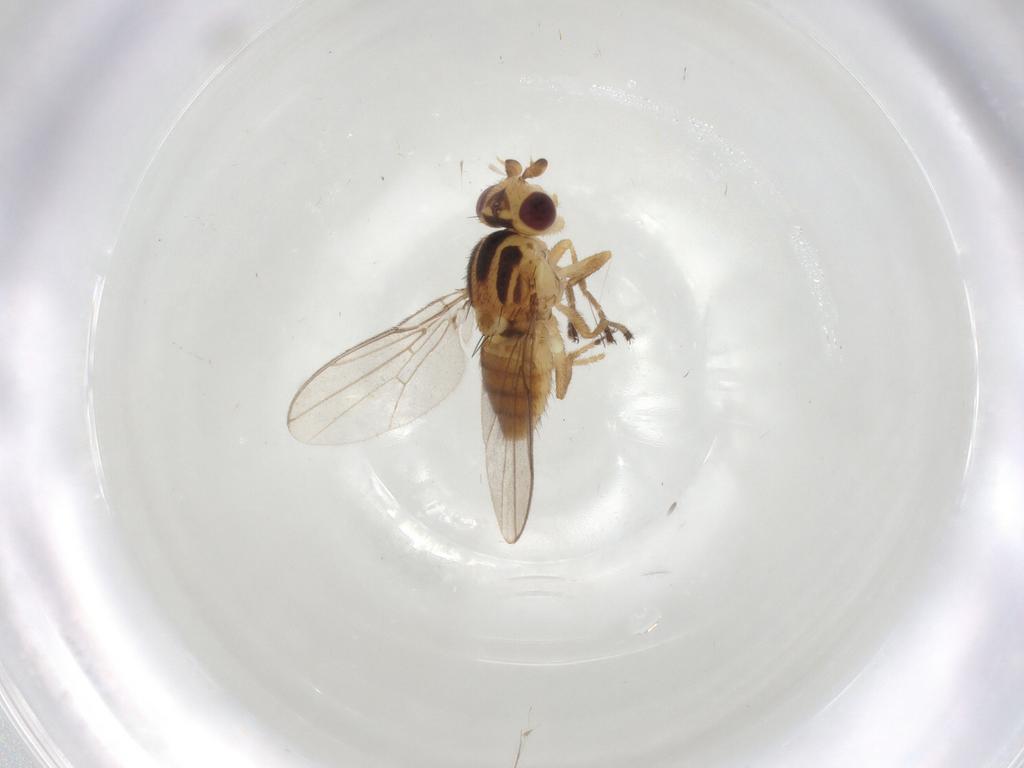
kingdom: Animalia
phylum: Arthropoda
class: Insecta
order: Diptera
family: Chloropidae
